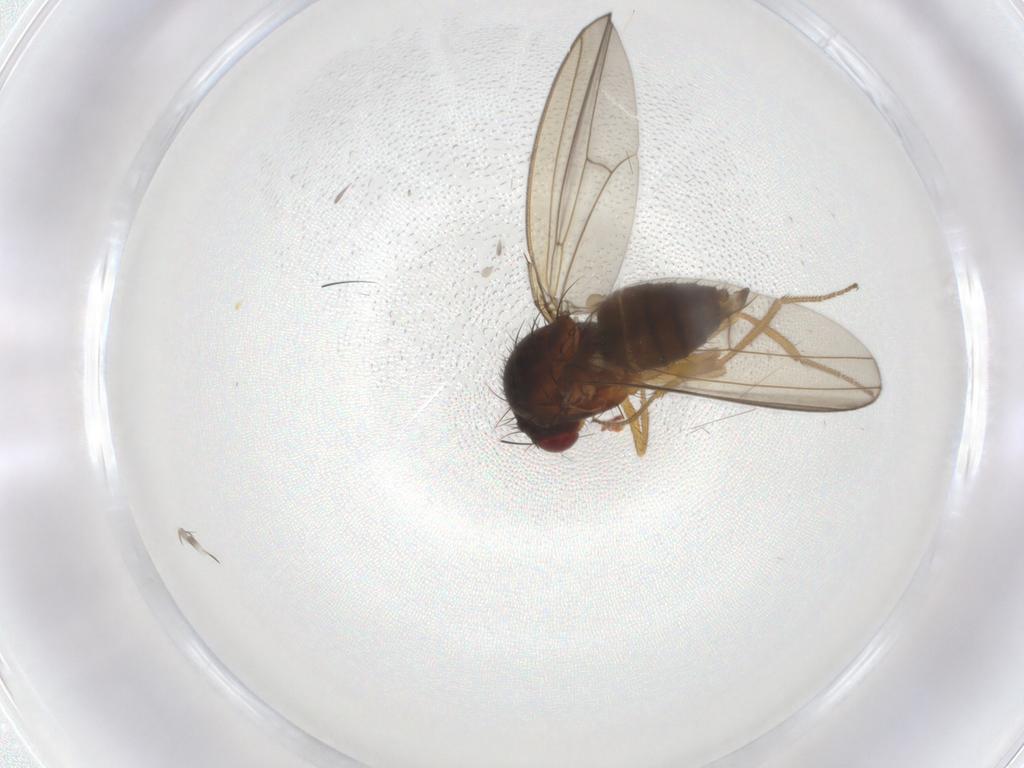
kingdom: Animalia
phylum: Arthropoda
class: Insecta
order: Diptera
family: Drosophilidae
